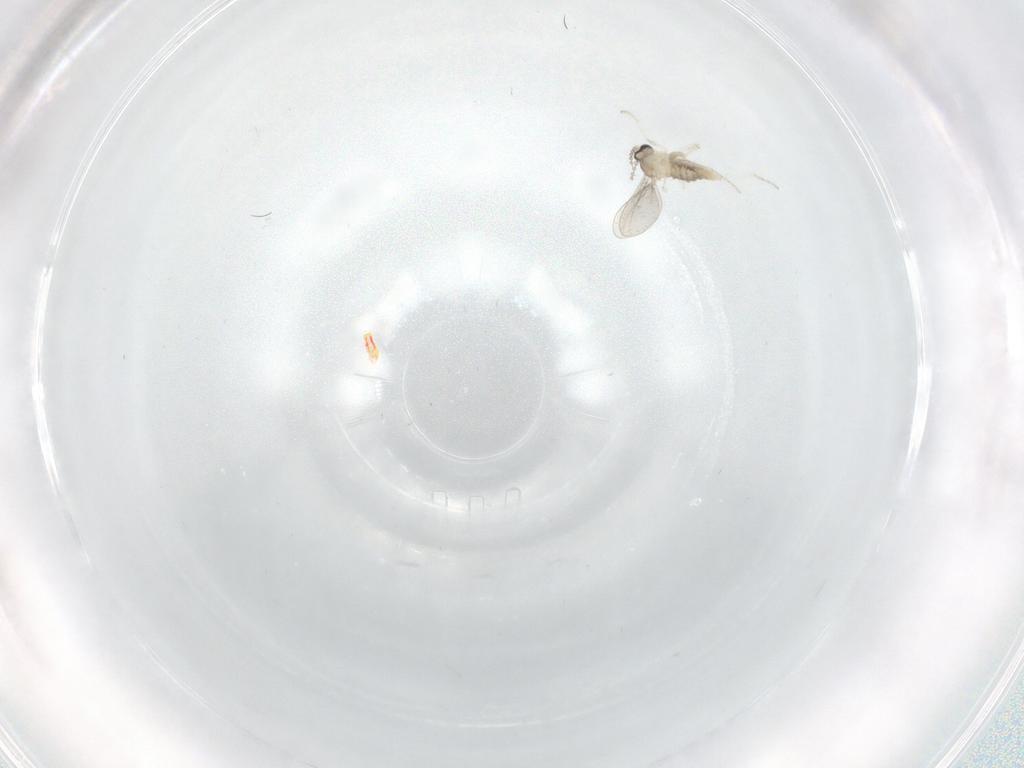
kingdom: Animalia
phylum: Arthropoda
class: Insecta
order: Diptera
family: Cecidomyiidae
